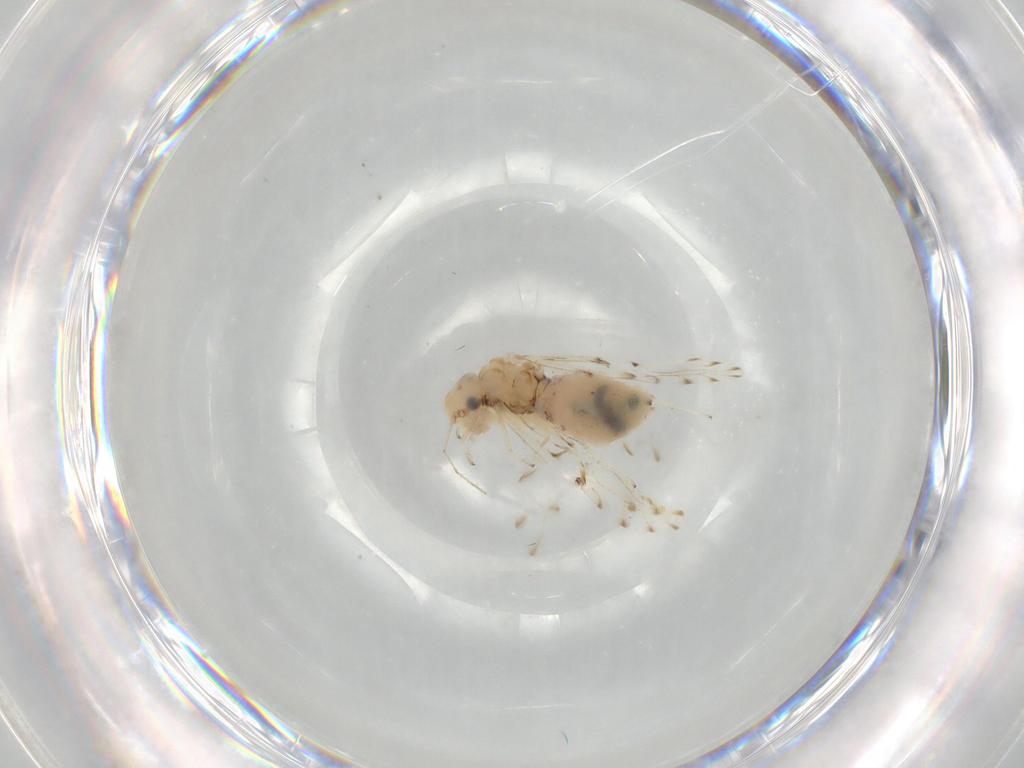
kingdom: Animalia
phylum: Arthropoda
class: Insecta
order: Psocodea
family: Ectopsocidae
